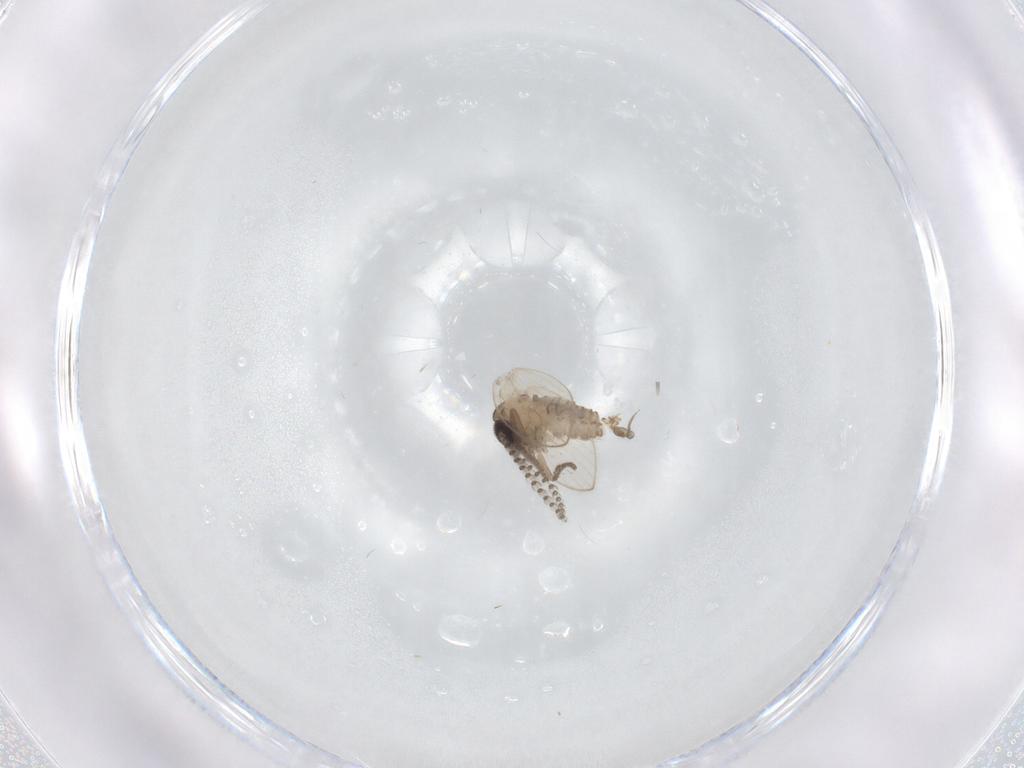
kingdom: Animalia
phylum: Arthropoda
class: Insecta
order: Diptera
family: Psychodidae
